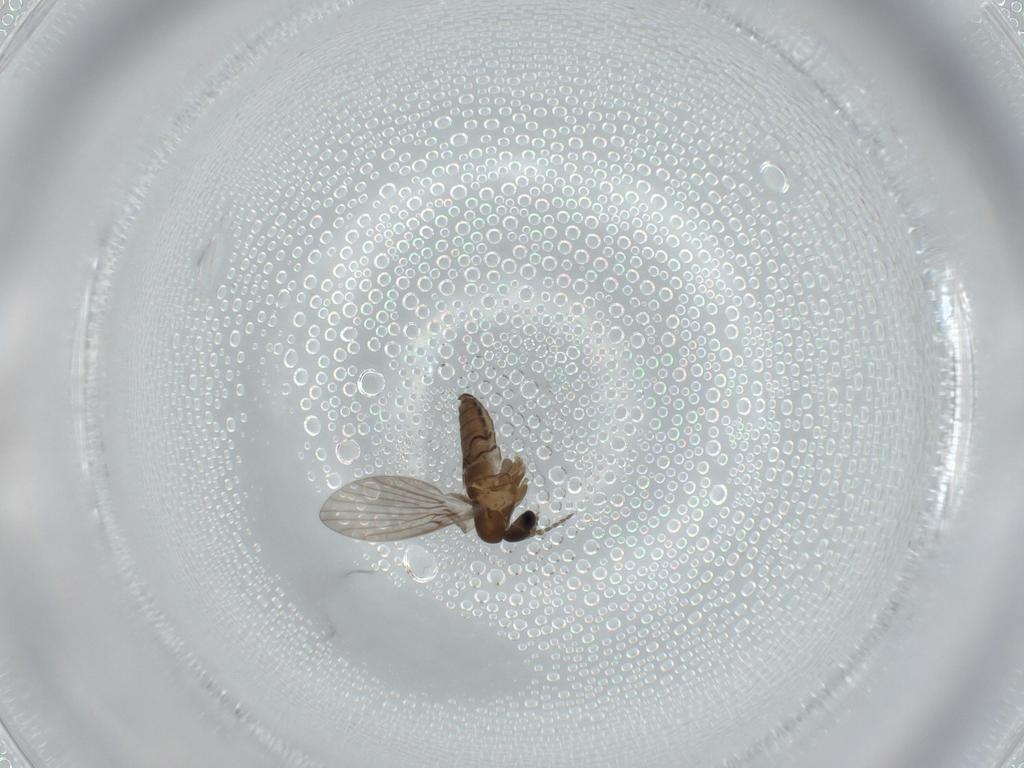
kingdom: Animalia
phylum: Arthropoda
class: Insecta
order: Diptera
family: Psychodidae
